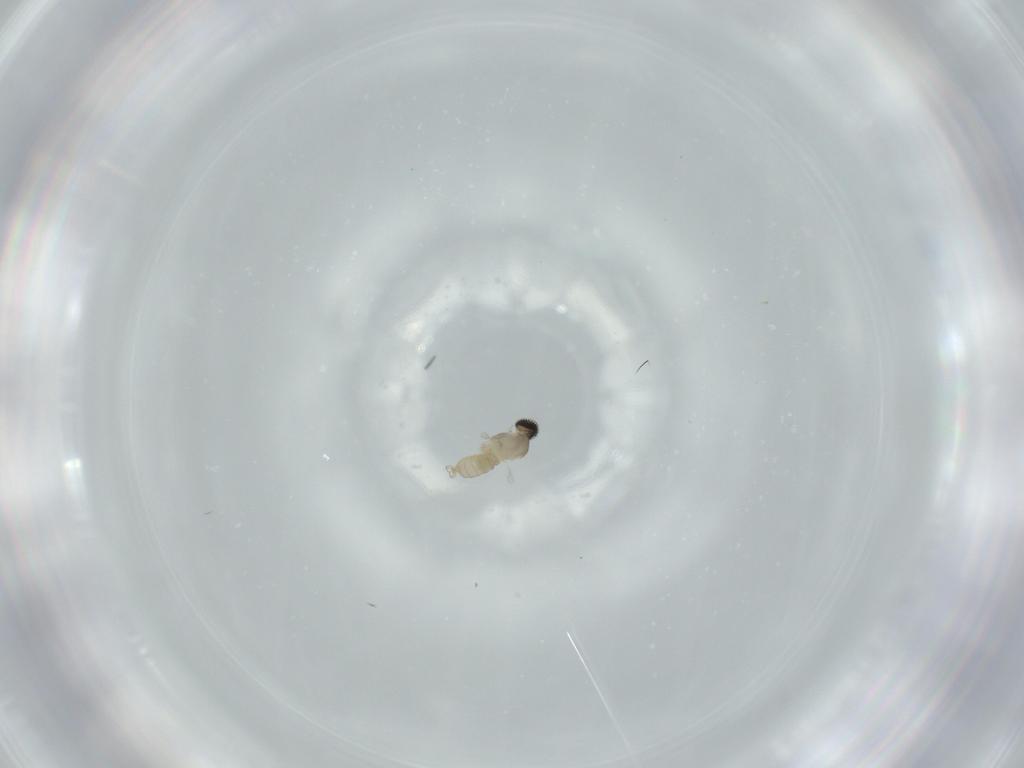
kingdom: Animalia
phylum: Arthropoda
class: Insecta
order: Diptera
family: Cecidomyiidae
